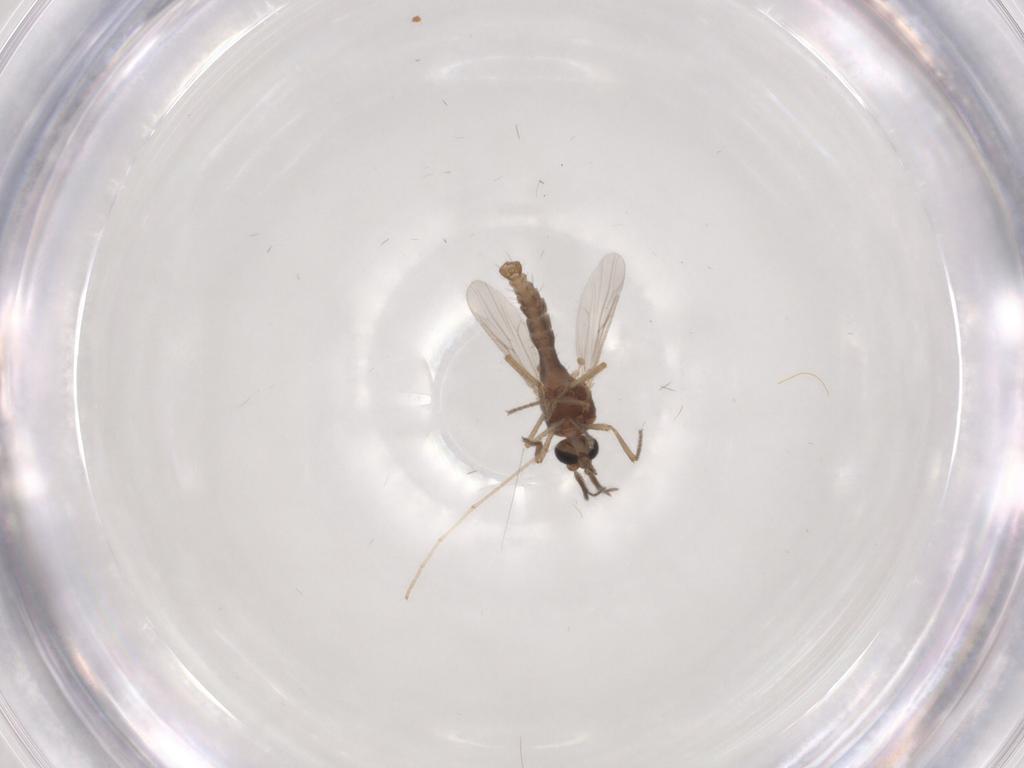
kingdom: Animalia
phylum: Arthropoda
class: Insecta
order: Diptera
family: Ceratopogonidae
